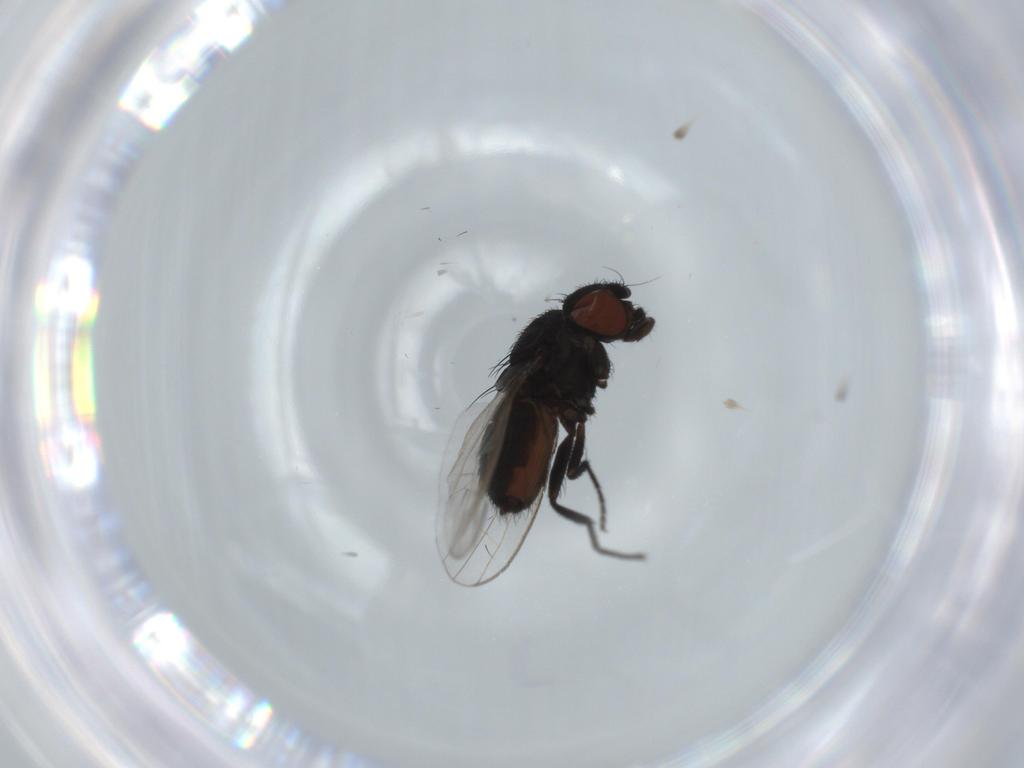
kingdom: Animalia
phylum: Arthropoda
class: Insecta
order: Diptera
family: Milichiidae
